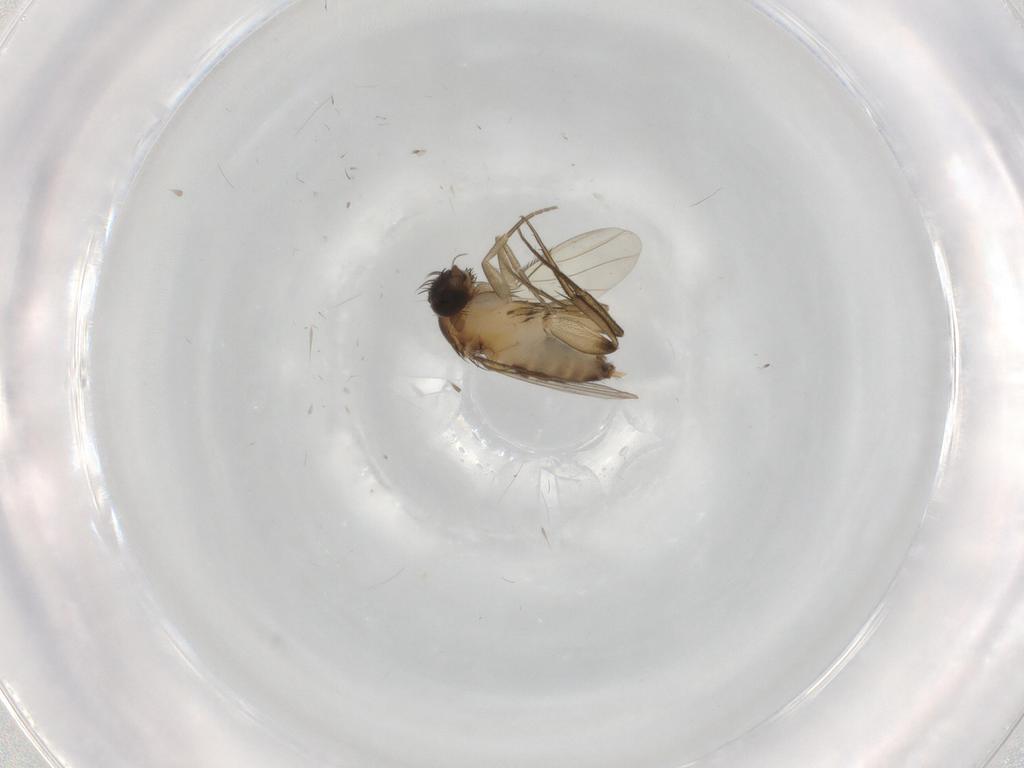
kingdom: Animalia
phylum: Arthropoda
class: Insecta
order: Diptera
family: Phoridae
